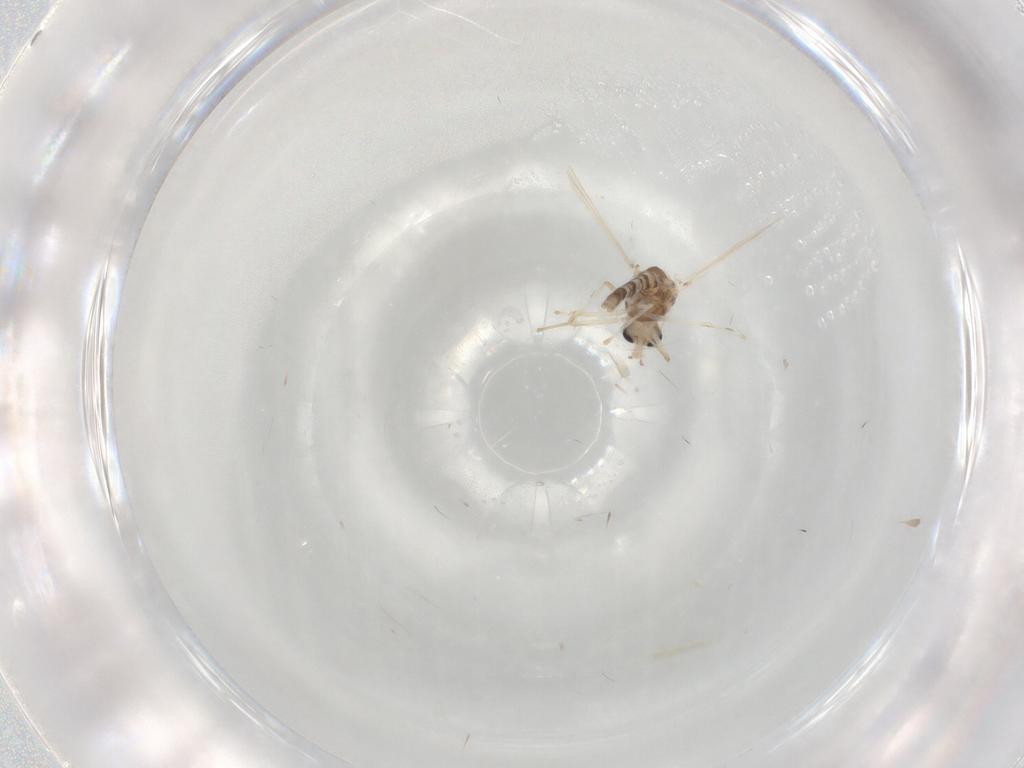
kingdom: Animalia
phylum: Arthropoda
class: Insecta
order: Diptera
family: Chironomidae
